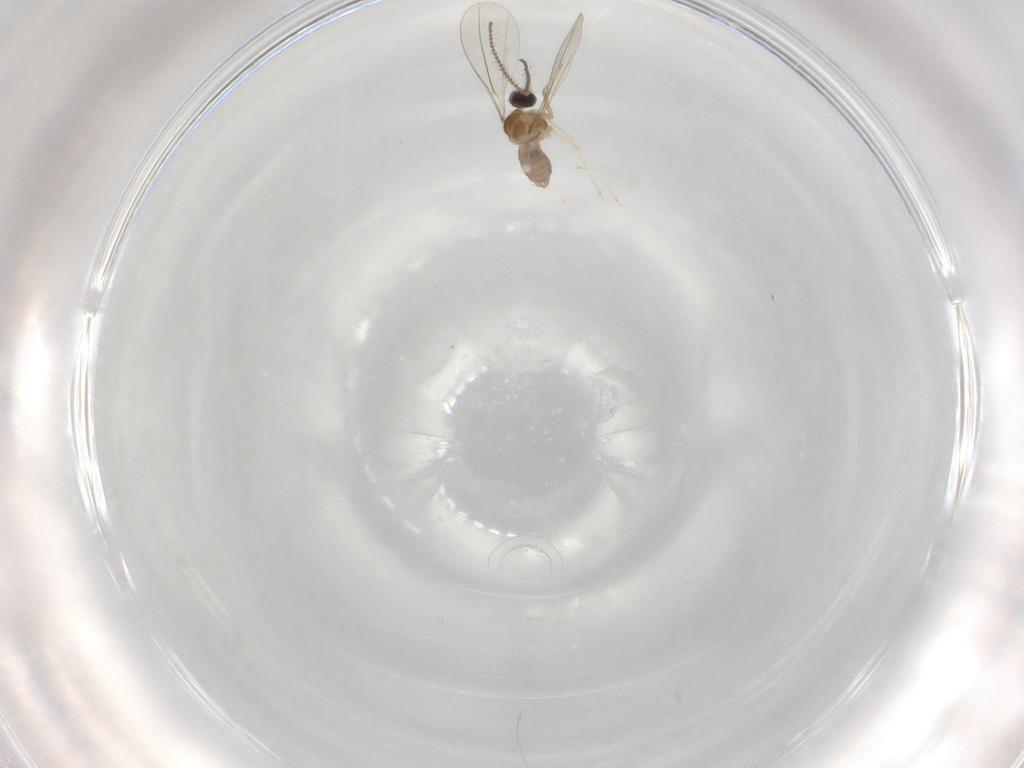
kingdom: Animalia
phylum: Arthropoda
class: Insecta
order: Diptera
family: Cecidomyiidae
